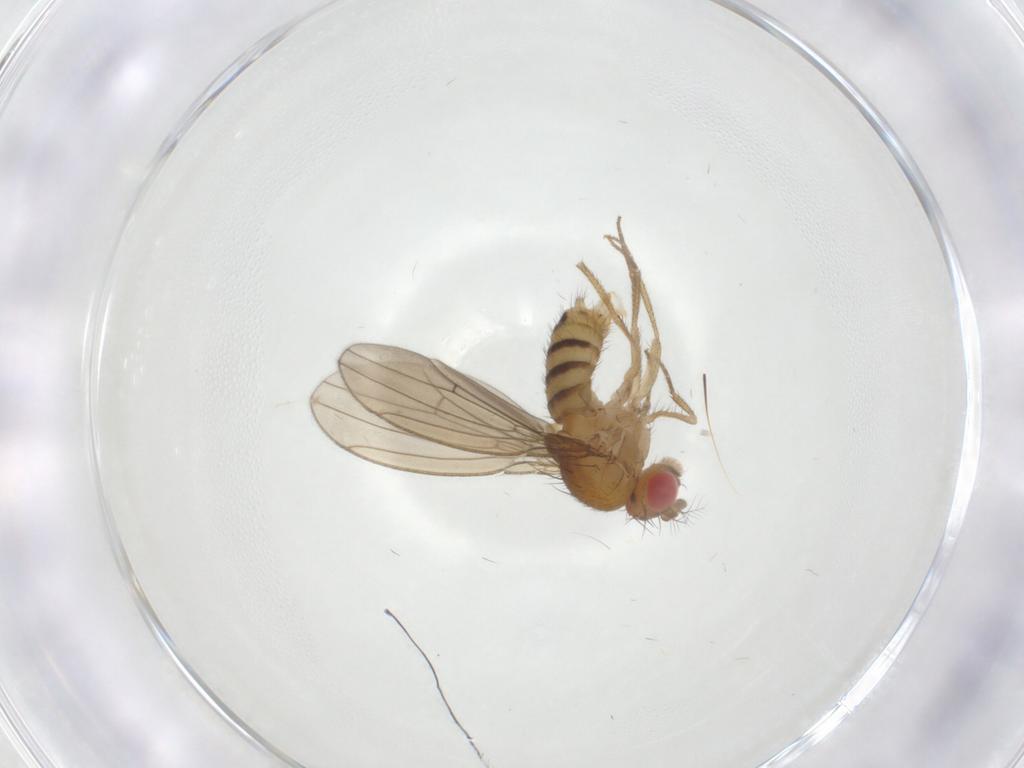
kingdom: Animalia
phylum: Arthropoda
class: Insecta
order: Diptera
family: Drosophilidae
